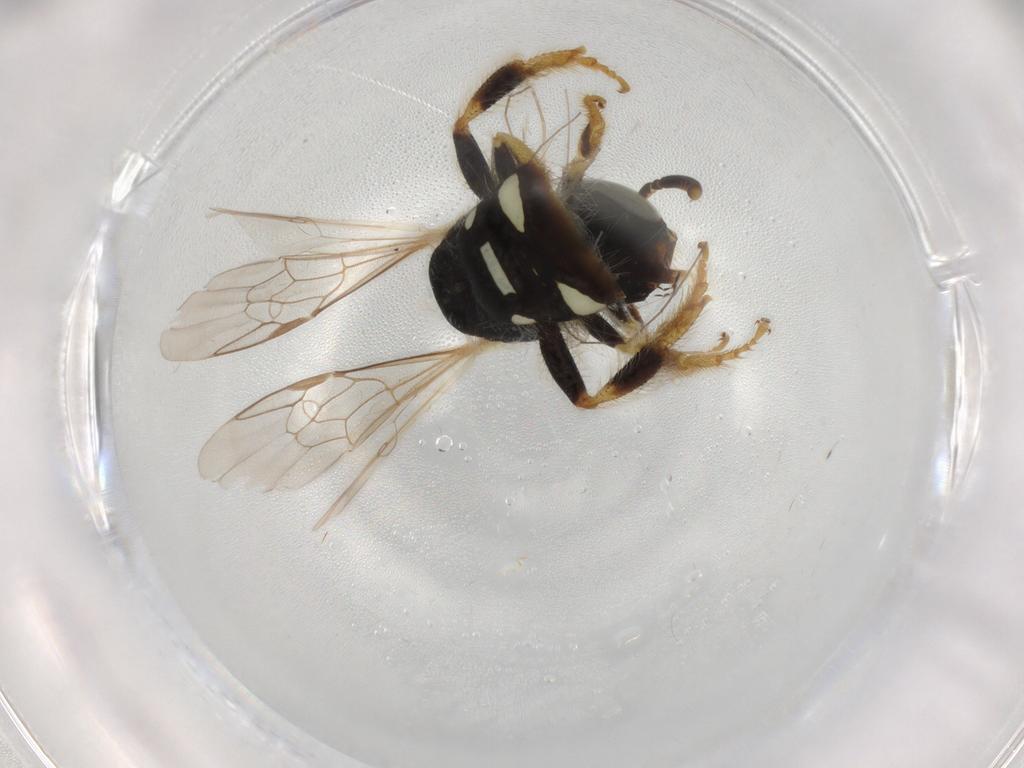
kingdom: Animalia
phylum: Arthropoda
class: Insecta
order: Hymenoptera
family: Halictidae
